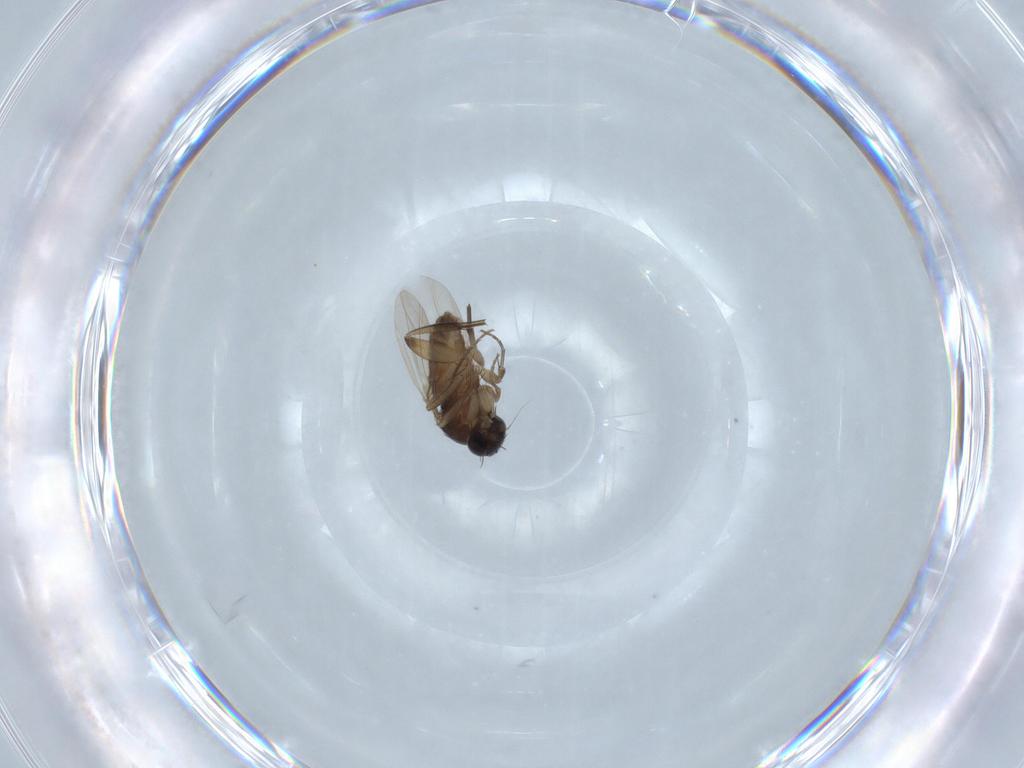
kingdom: Animalia
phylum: Arthropoda
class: Insecta
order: Diptera
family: Phoridae
